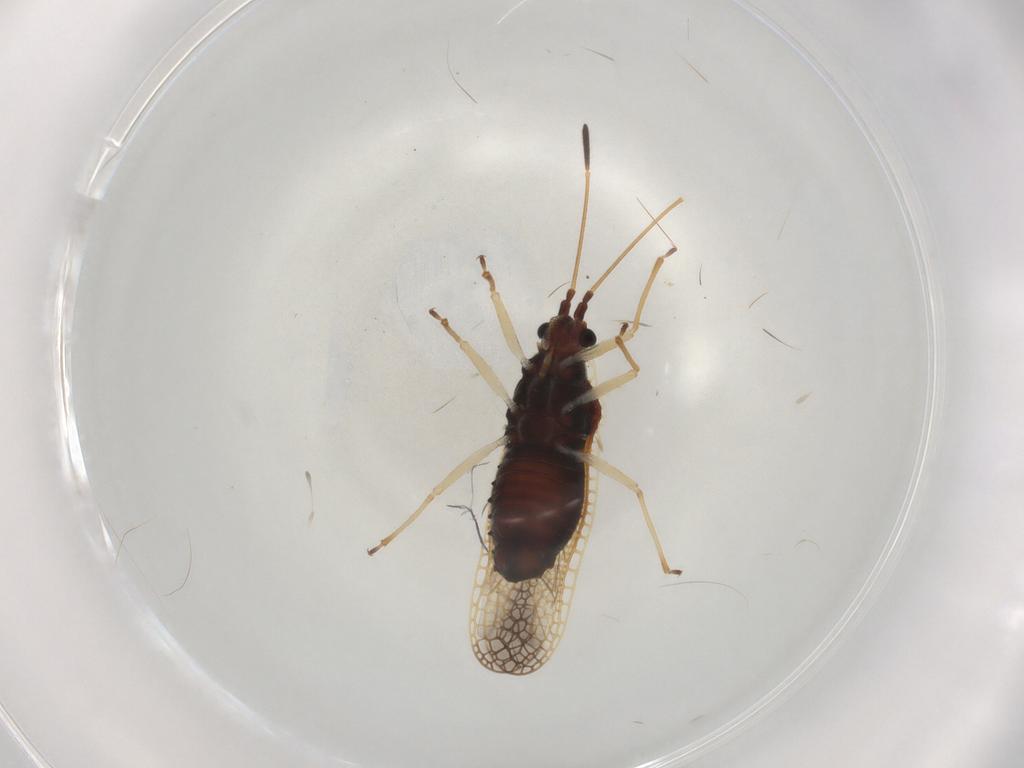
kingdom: Animalia
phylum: Arthropoda
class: Insecta
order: Hemiptera
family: Tingidae
